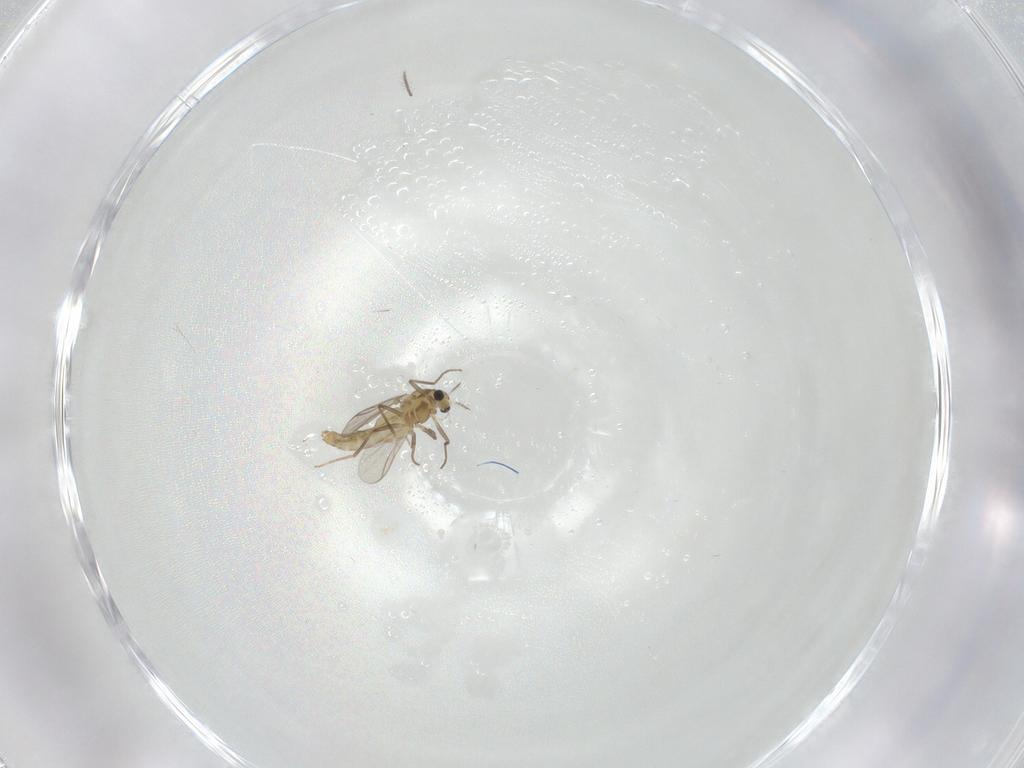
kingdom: Animalia
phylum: Arthropoda
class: Insecta
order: Diptera
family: Chironomidae
